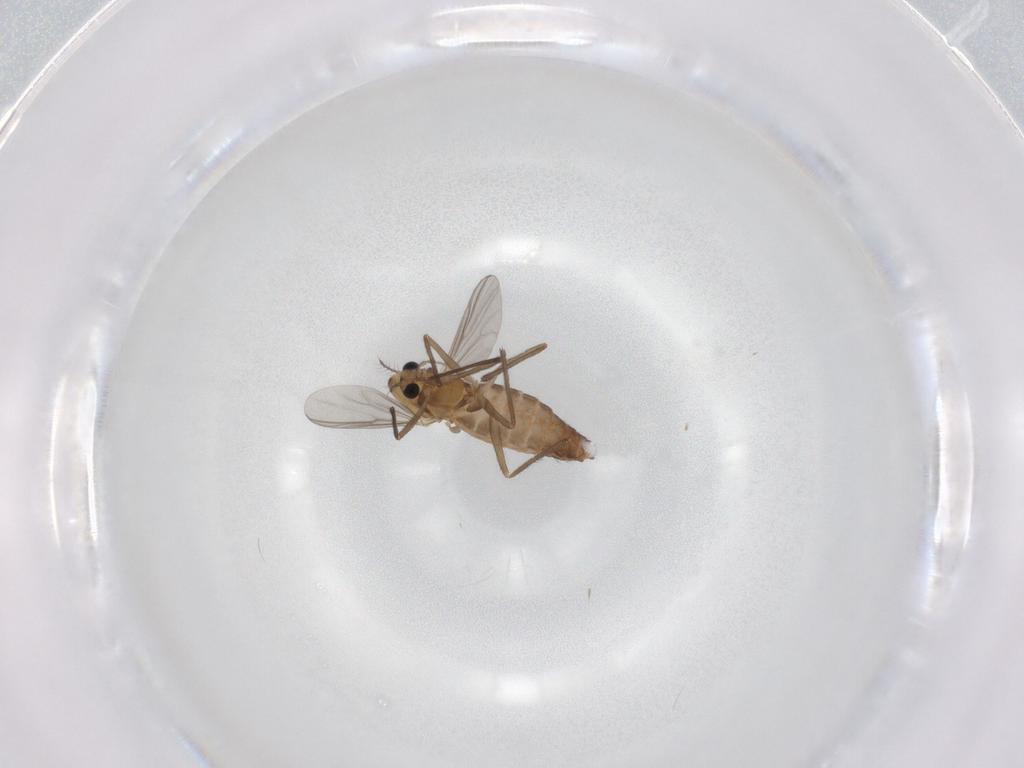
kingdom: Animalia
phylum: Arthropoda
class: Insecta
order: Diptera
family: Chironomidae
